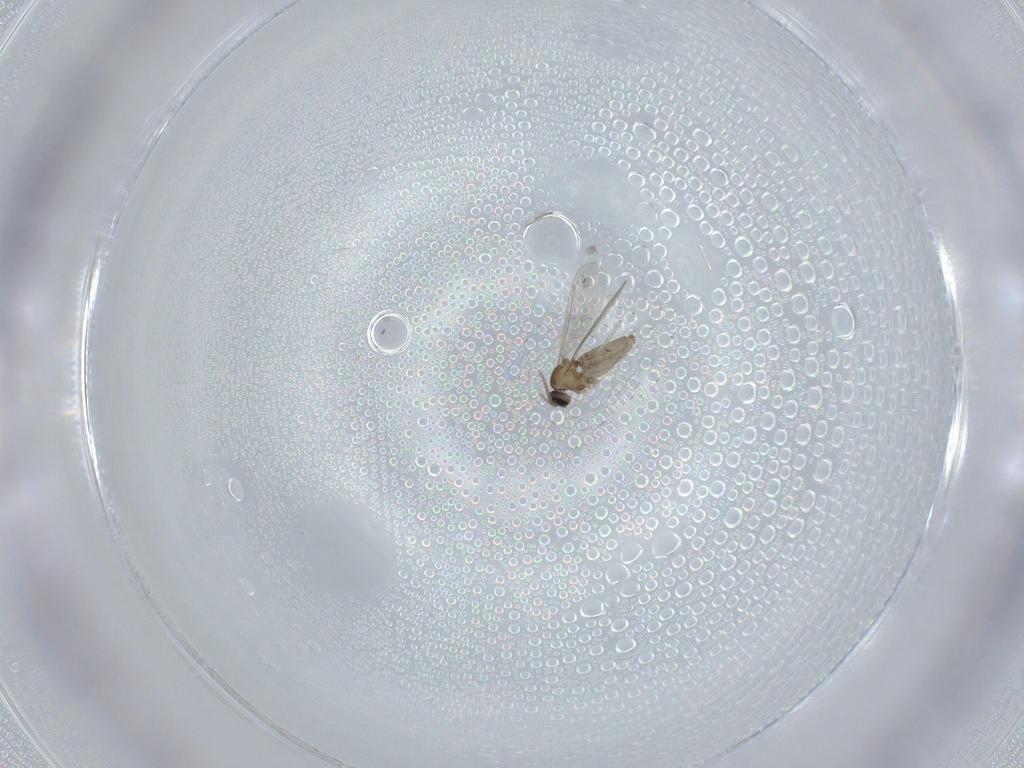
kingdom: Animalia
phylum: Arthropoda
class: Insecta
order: Diptera
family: Cecidomyiidae
